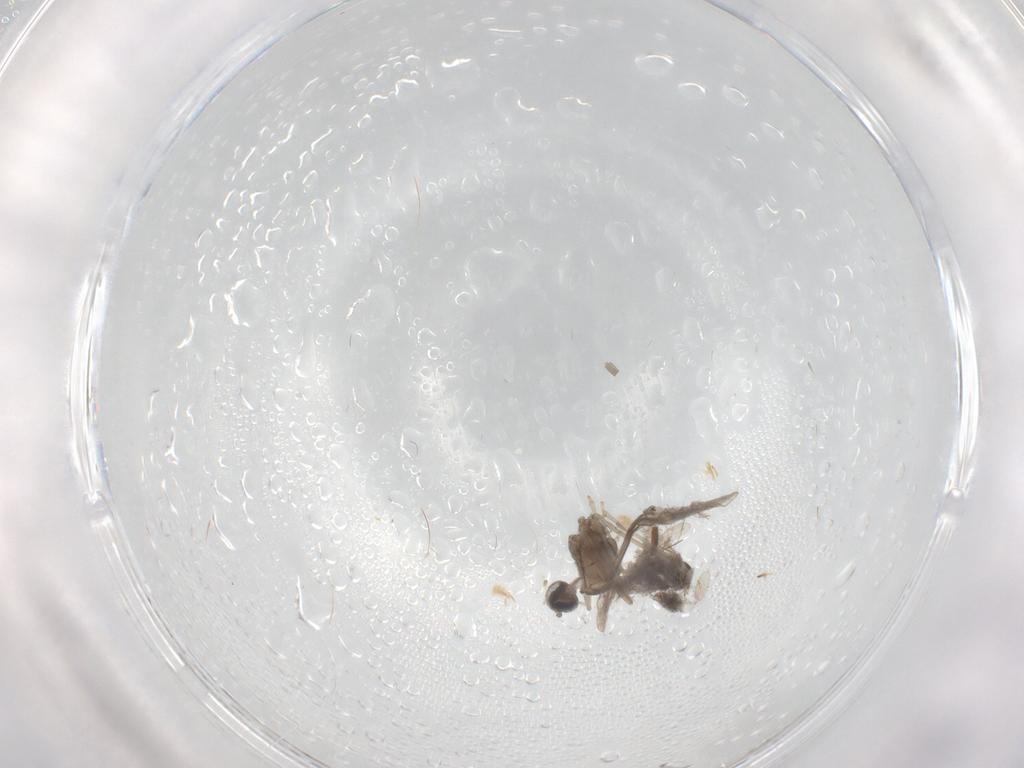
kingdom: Animalia
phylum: Arthropoda
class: Insecta
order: Diptera
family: Psychodidae
